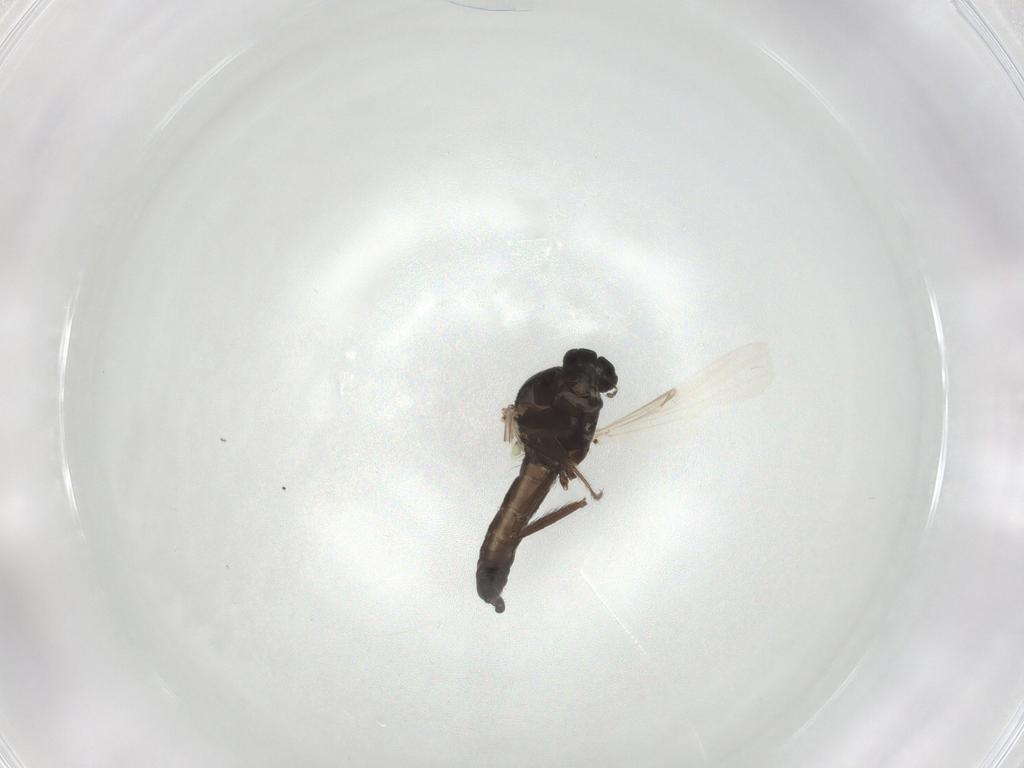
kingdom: Animalia
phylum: Arthropoda
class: Insecta
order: Diptera
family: Ceratopogonidae
